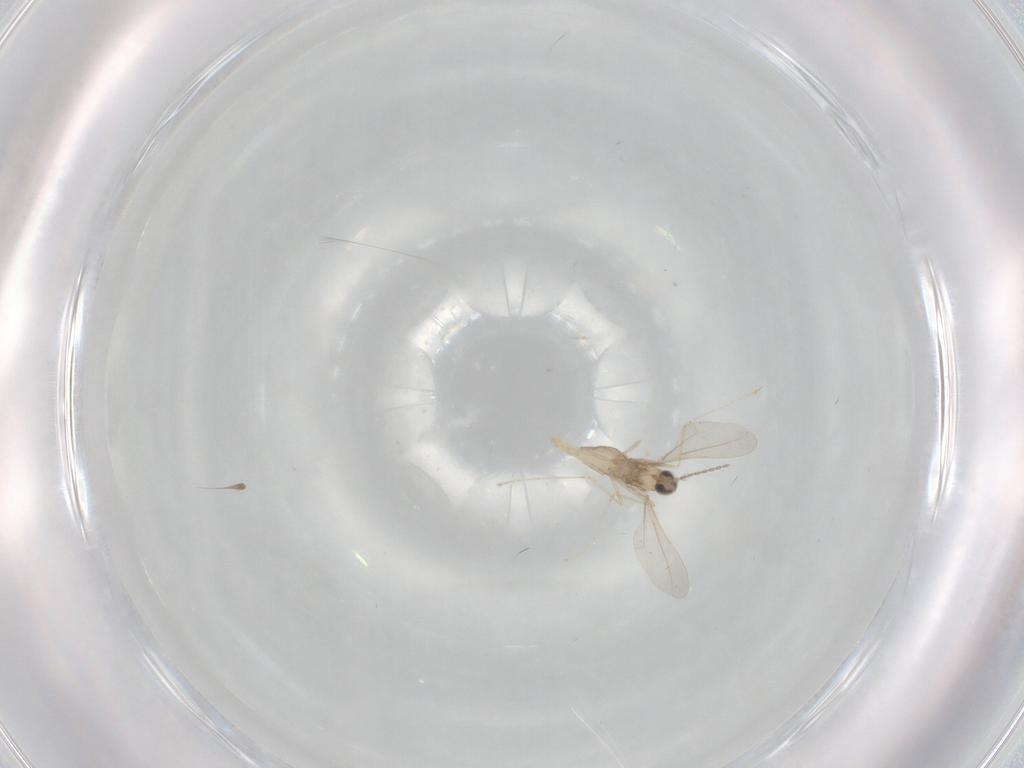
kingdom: Animalia
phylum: Arthropoda
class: Insecta
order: Diptera
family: Cecidomyiidae
